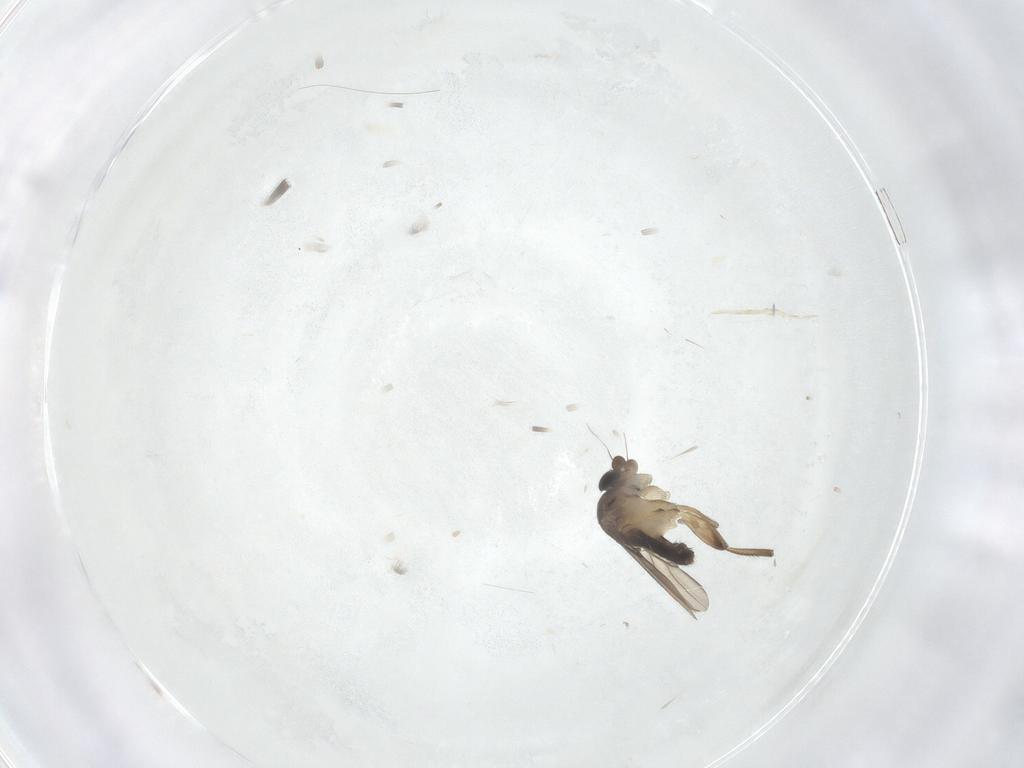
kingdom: Animalia
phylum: Arthropoda
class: Insecta
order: Diptera
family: Phoridae
